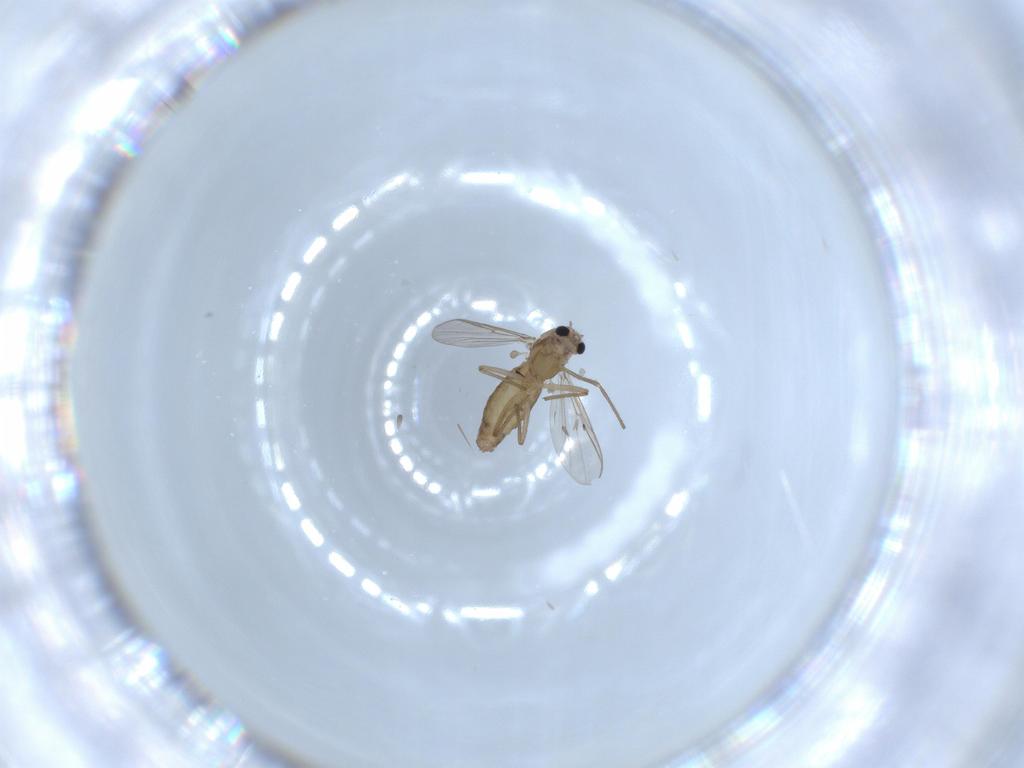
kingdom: Animalia
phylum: Arthropoda
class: Insecta
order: Diptera
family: Chironomidae
